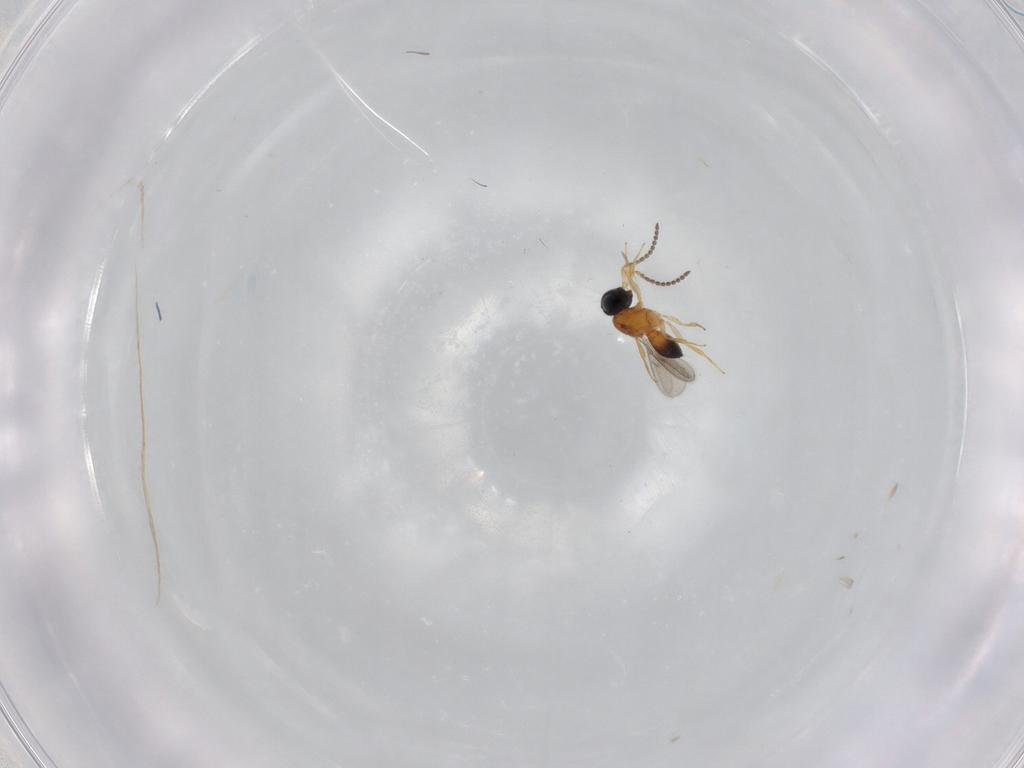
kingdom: Animalia
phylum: Arthropoda
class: Insecta
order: Hymenoptera
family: Scelionidae
